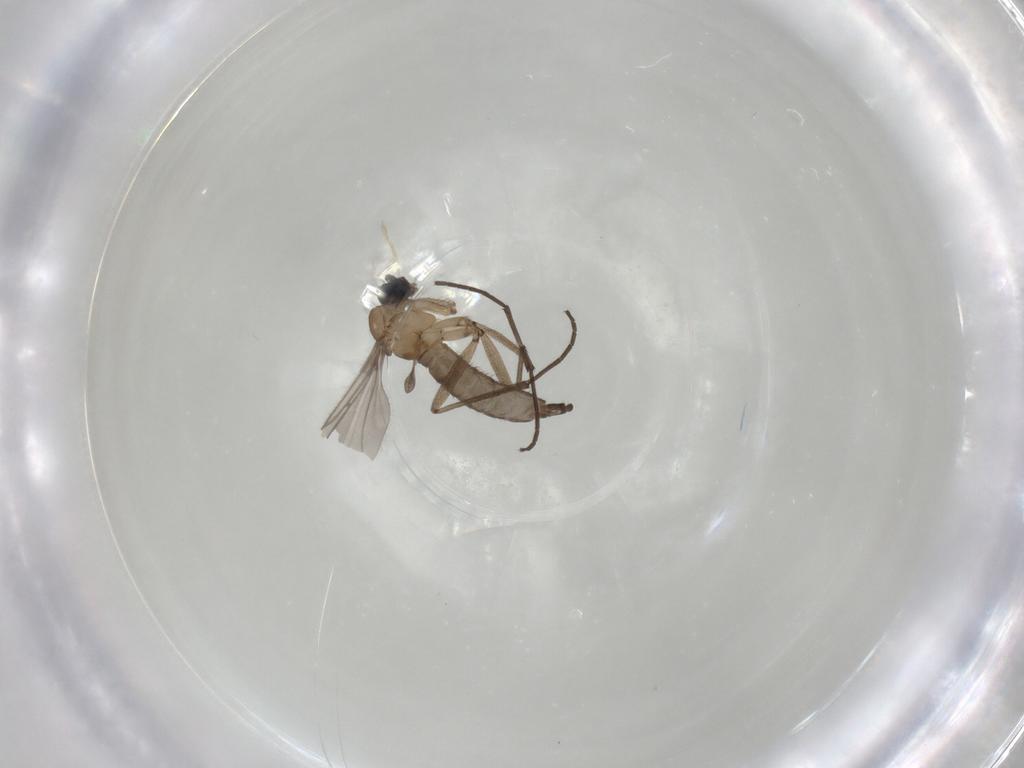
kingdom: Animalia
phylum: Arthropoda
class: Insecta
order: Diptera
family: Sciaridae
